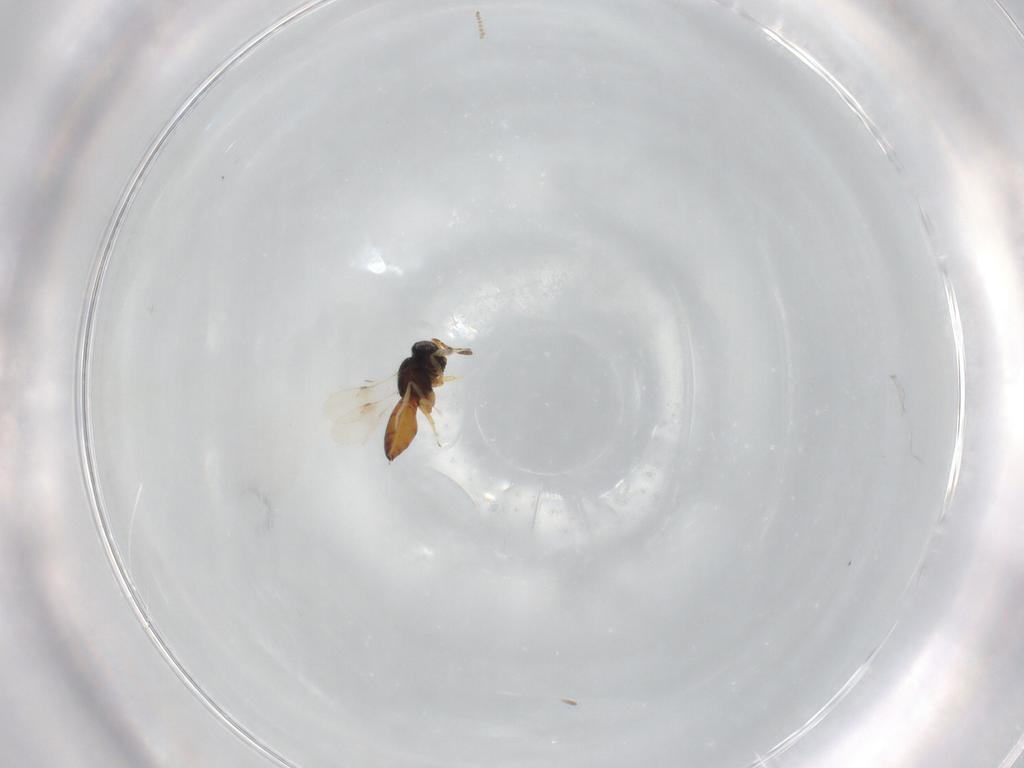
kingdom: Animalia
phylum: Arthropoda
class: Insecta
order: Hymenoptera
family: Scelionidae
